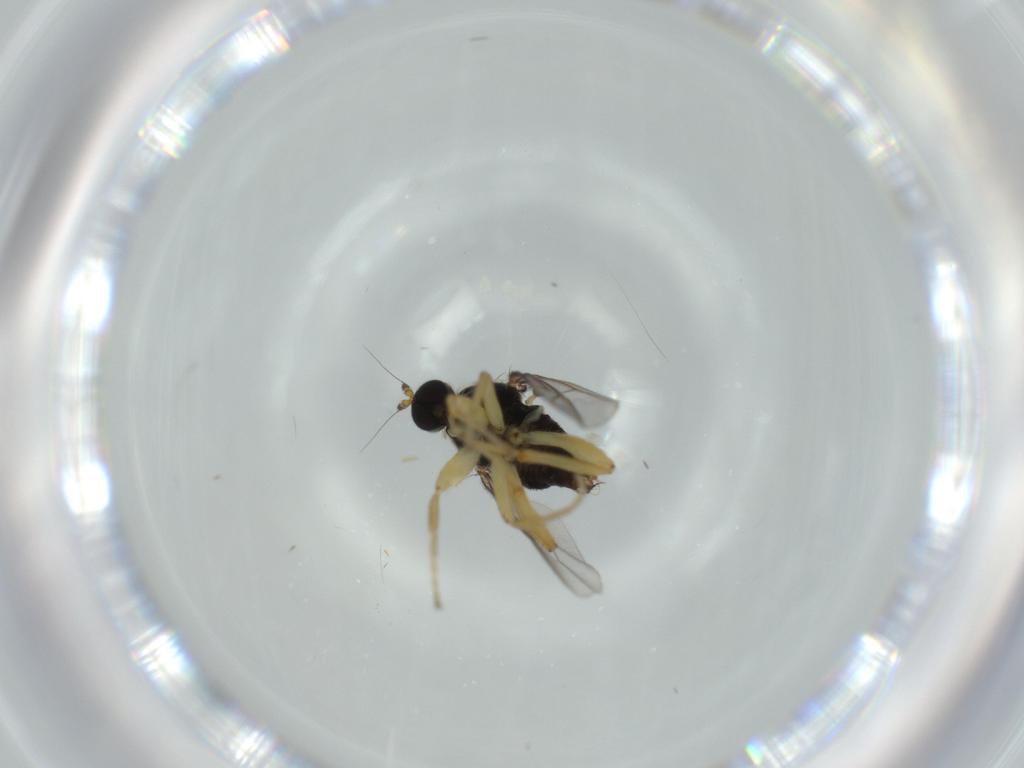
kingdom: Animalia
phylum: Arthropoda
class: Insecta
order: Diptera
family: Hybotidae
